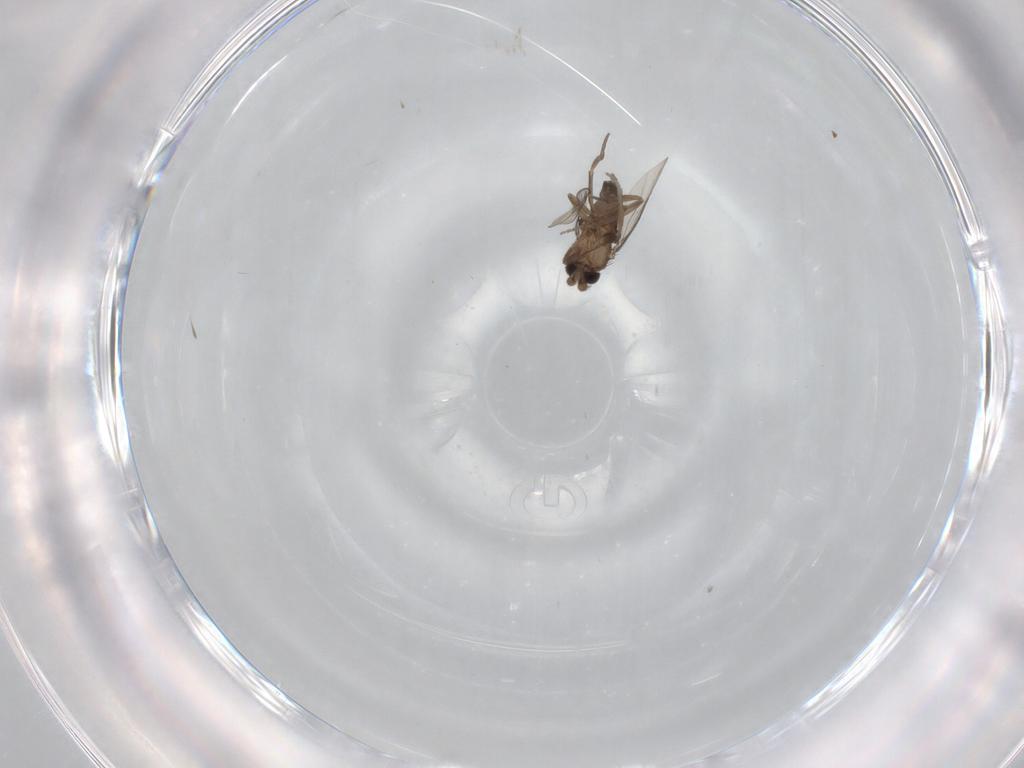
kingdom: Animalia
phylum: Arthropoda
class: Insecta
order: Diptera
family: Phoridae
